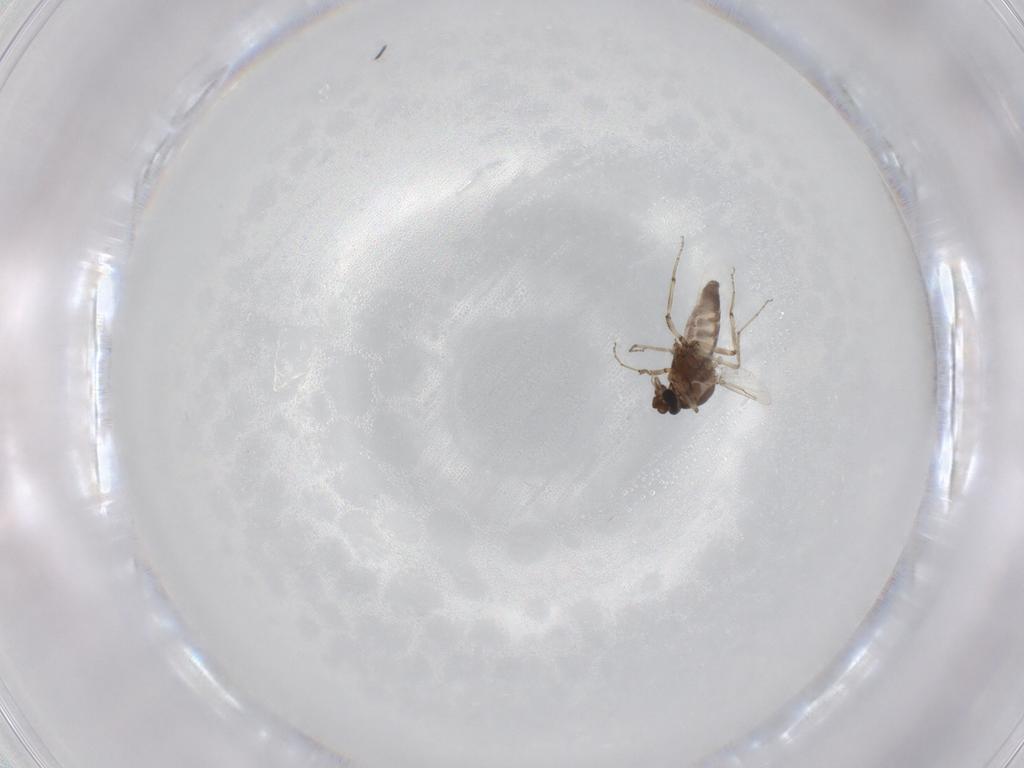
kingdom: Animalia
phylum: Arthropoda
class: Insecta
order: Diptera
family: Ceratopogonidae
